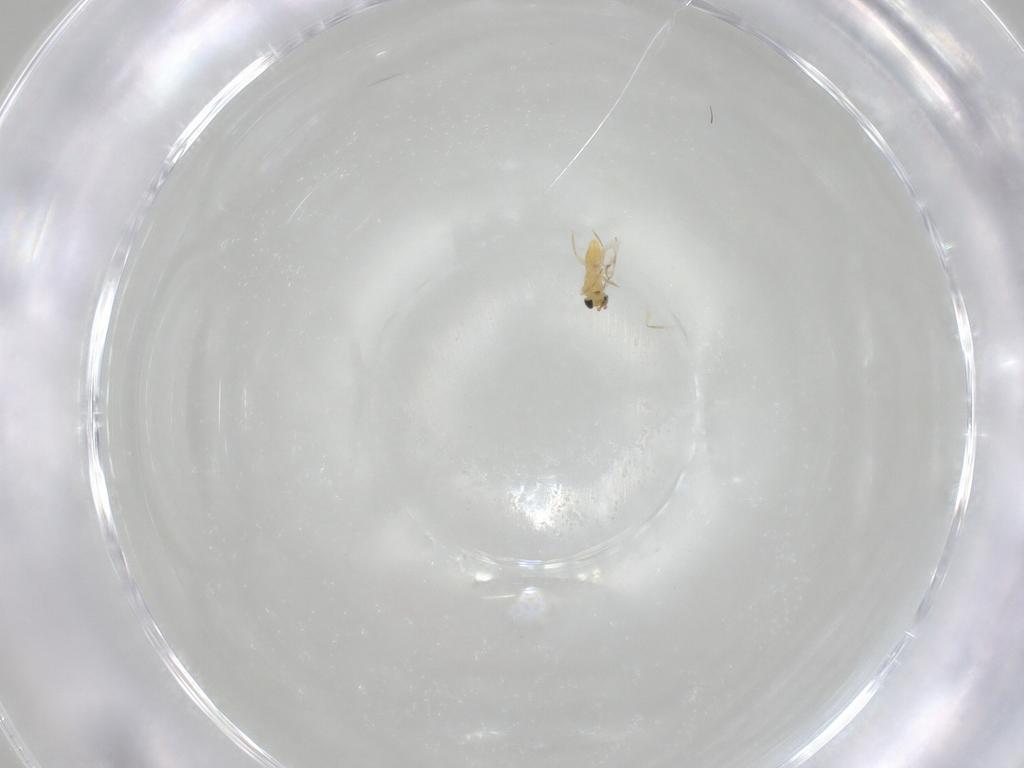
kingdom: Animalia
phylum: Arthropoda
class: Insecta
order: Hymenoptera
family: Trichogrammatidae
